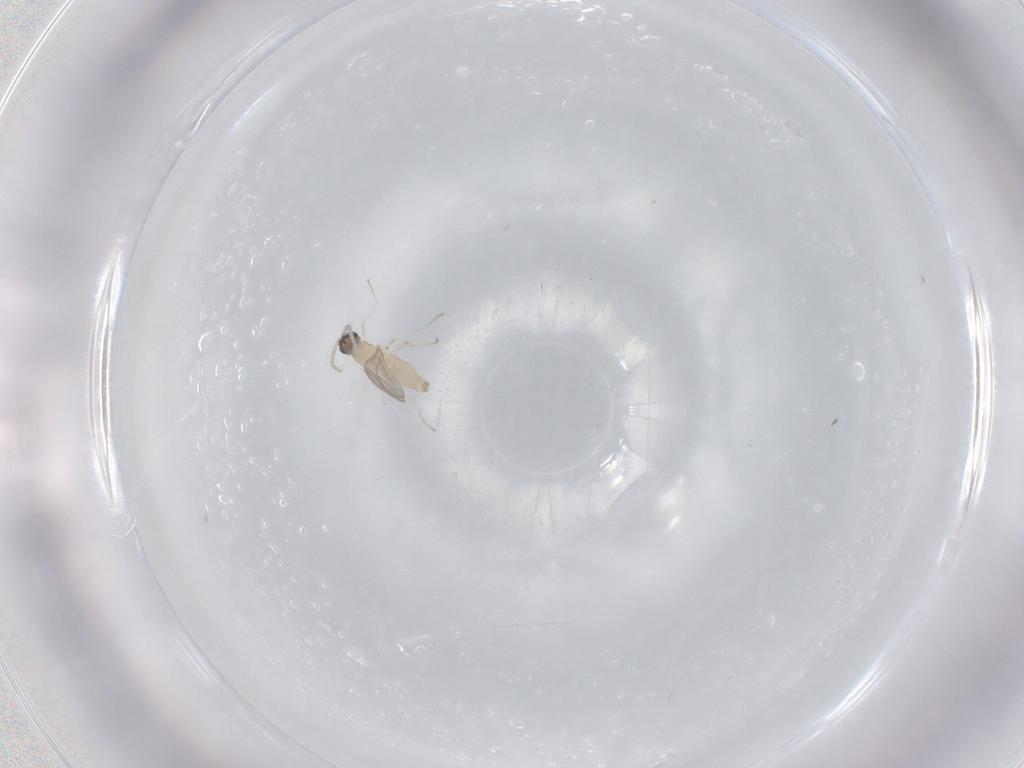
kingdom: Animalia
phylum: Arthropoda
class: Insecta
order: Diptera
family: Cecidomyiidae
